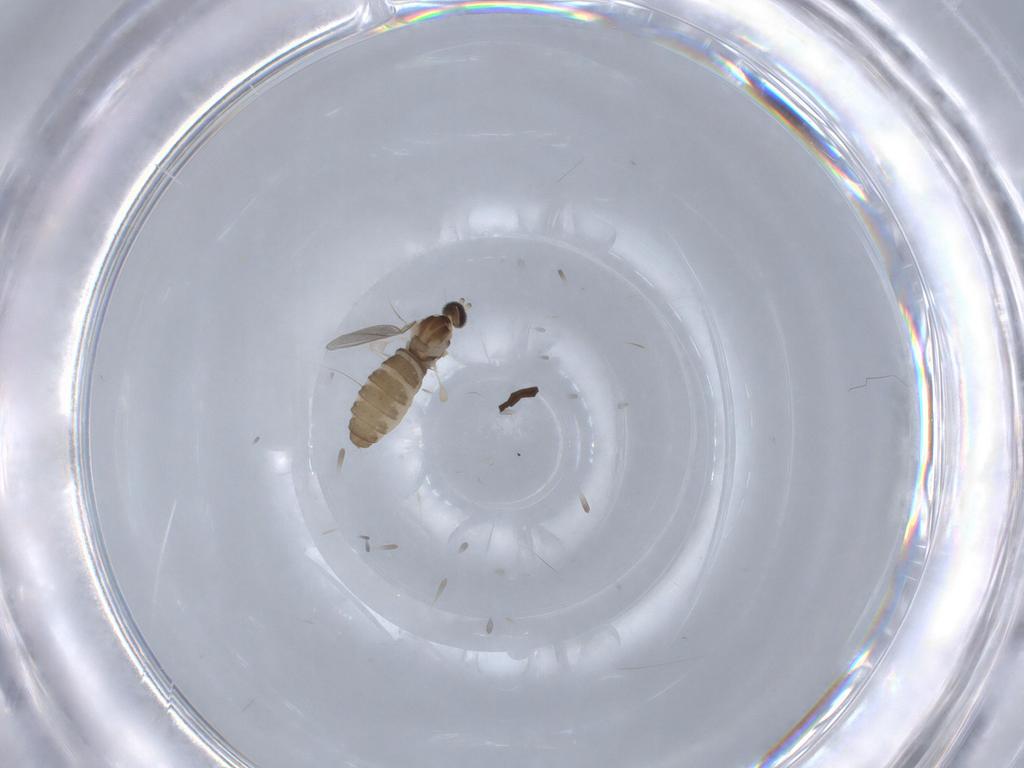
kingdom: Animalia
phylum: Arthropoda
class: Insecta
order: Diptera
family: Cecidomyiidae
